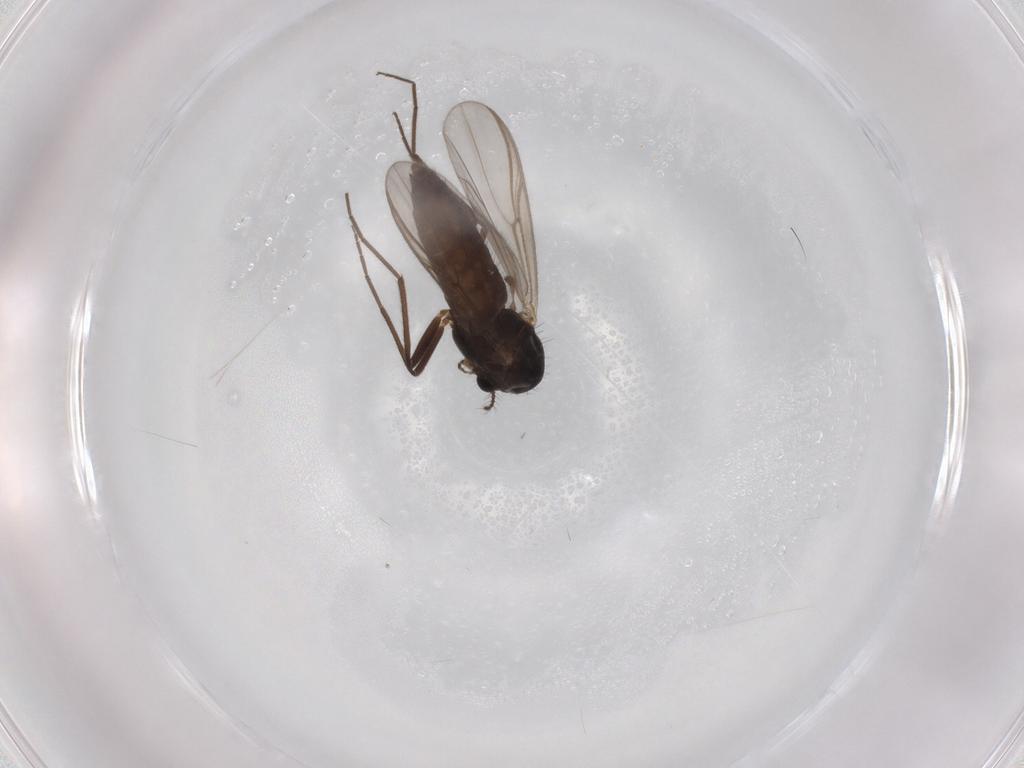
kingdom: Animalia
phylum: Arthropoda
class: Insecta
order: Diptera
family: Chironomidae
